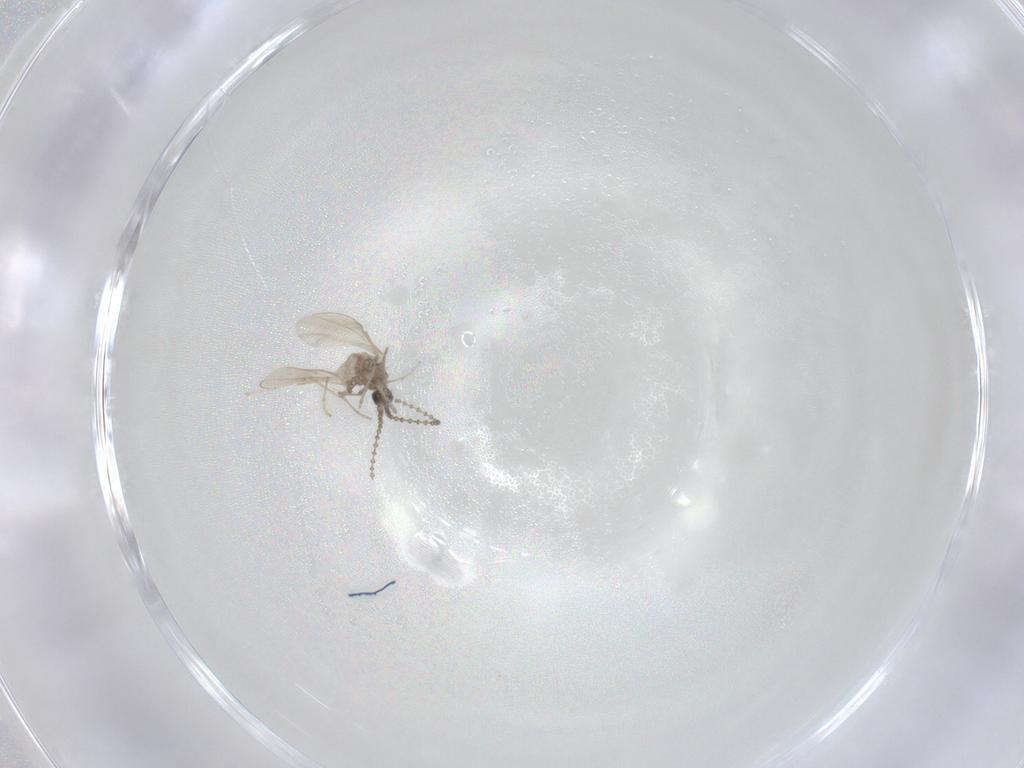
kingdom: Animalia
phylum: Arthropoda
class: Insecta
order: Diptera
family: Cecidomyiidae
